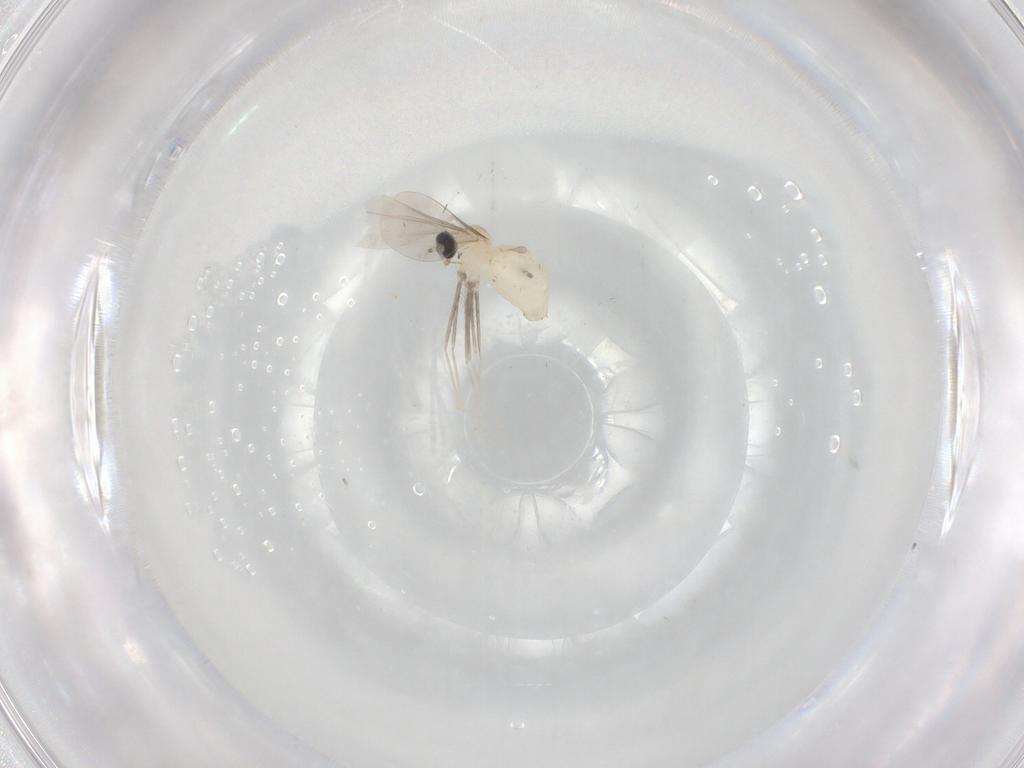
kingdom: Animalia
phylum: Arthropoda
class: Insecta
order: Diptera
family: Cecidomyiidae
